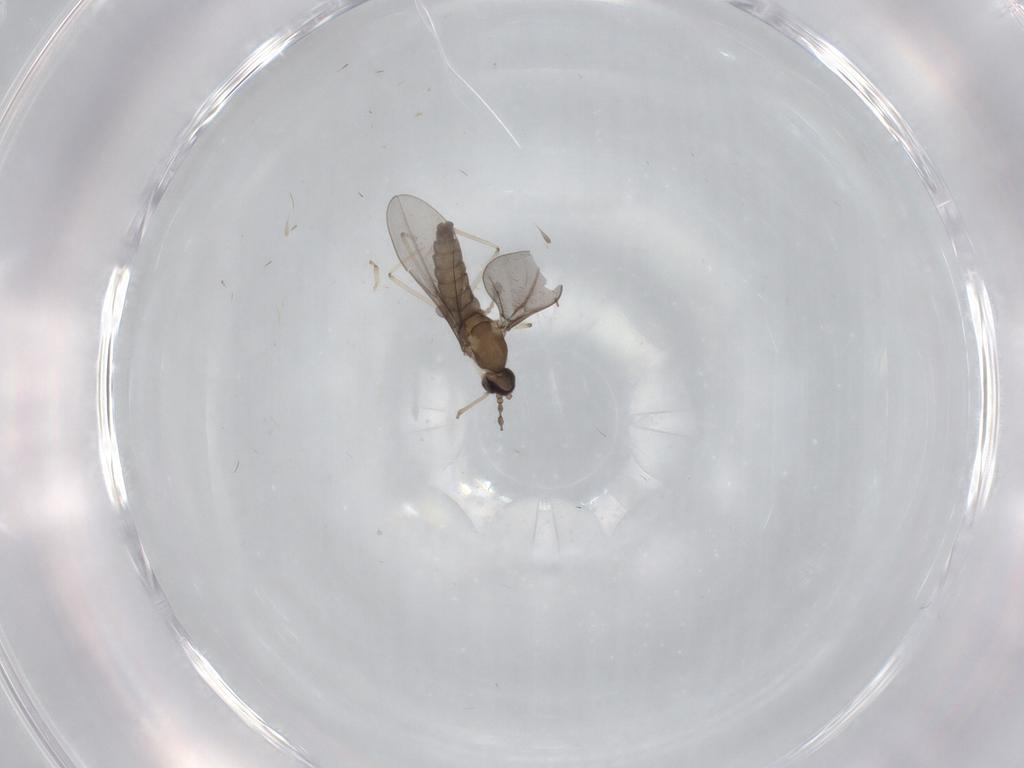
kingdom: Animalia
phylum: Arthropoda
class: Insecta
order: Diptera
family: Cecidomyiidae
